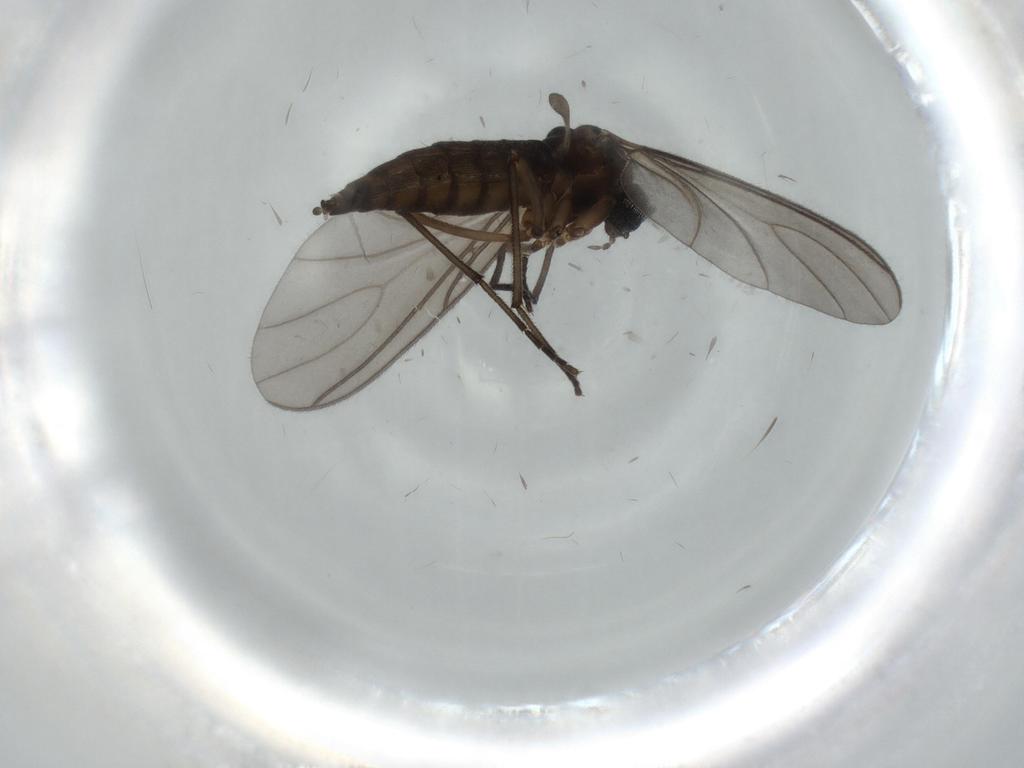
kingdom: Animalia
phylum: Arthropoda
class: Insecta
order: Diptera
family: Sciaridae
